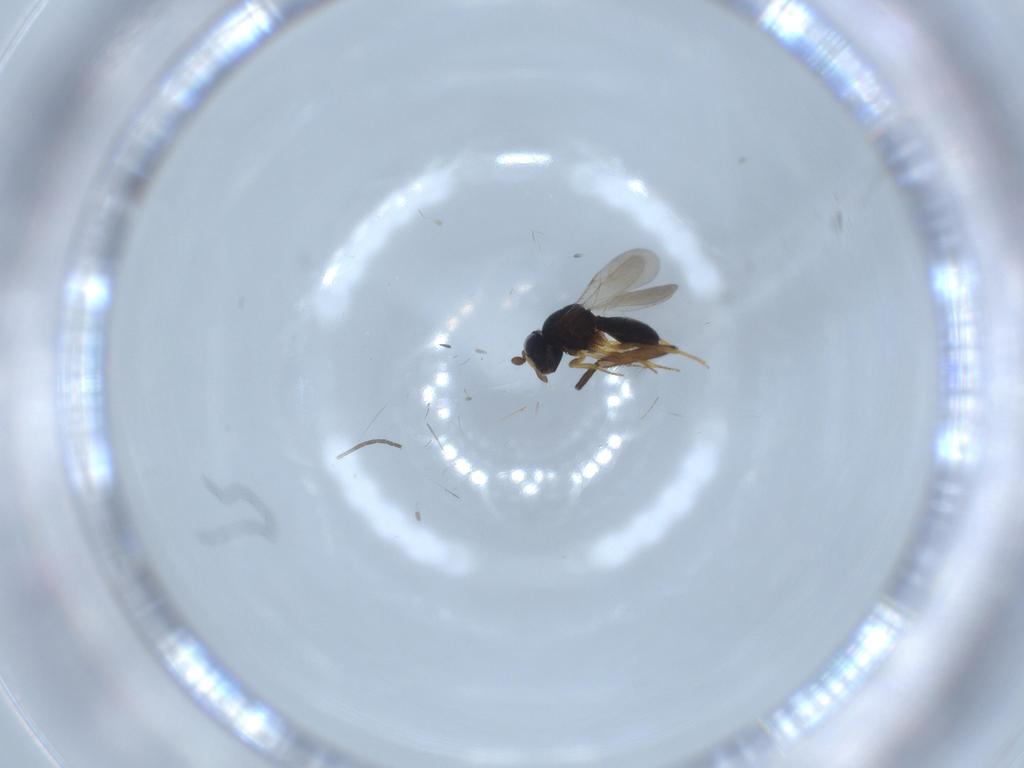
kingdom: Animalia
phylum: Arthropoda
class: Insecta
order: Hymenoptera
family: Scelionidae
